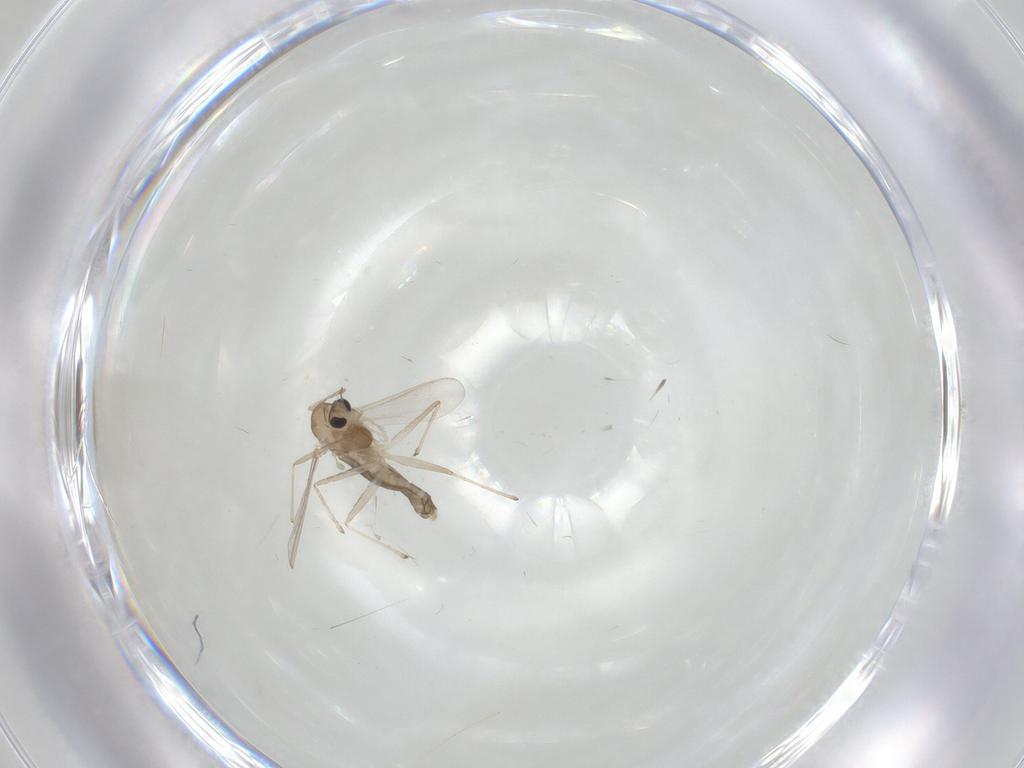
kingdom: Animalia
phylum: Arthropoda
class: Insecta
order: Diptera
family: Chironomidae
